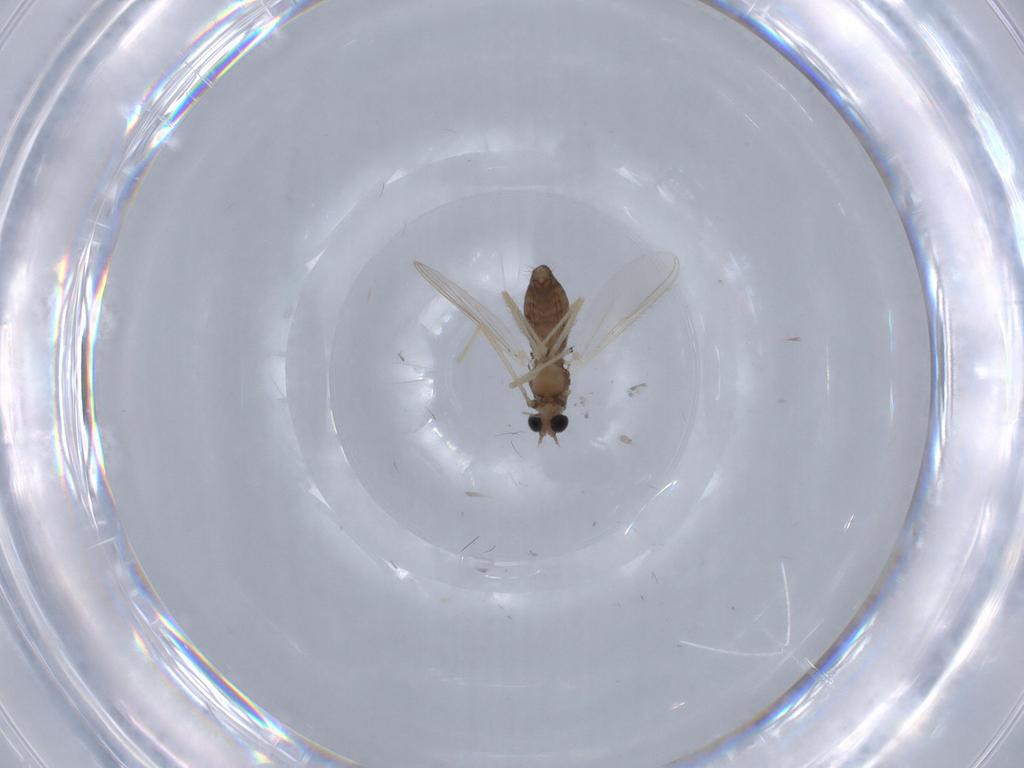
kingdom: Animalia
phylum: Arthropoda
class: Insecta
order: Diptera
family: Chironomidae
